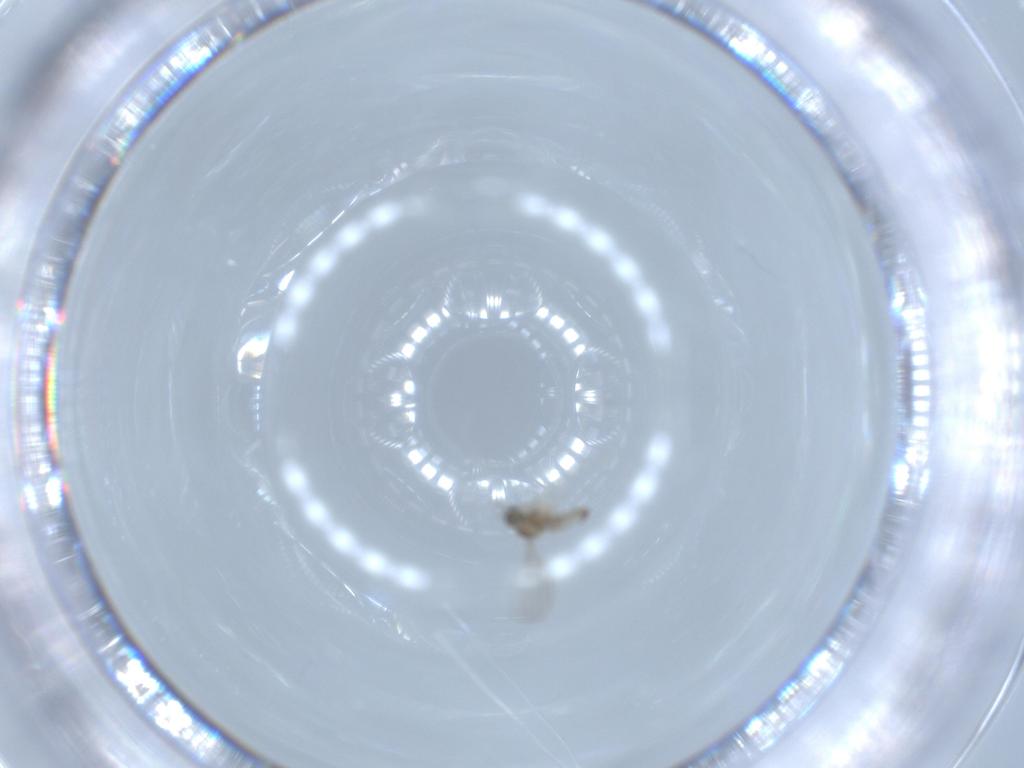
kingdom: Animalia
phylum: Arthropoda
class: Insecta
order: Diptera
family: Cecidomyiidae
